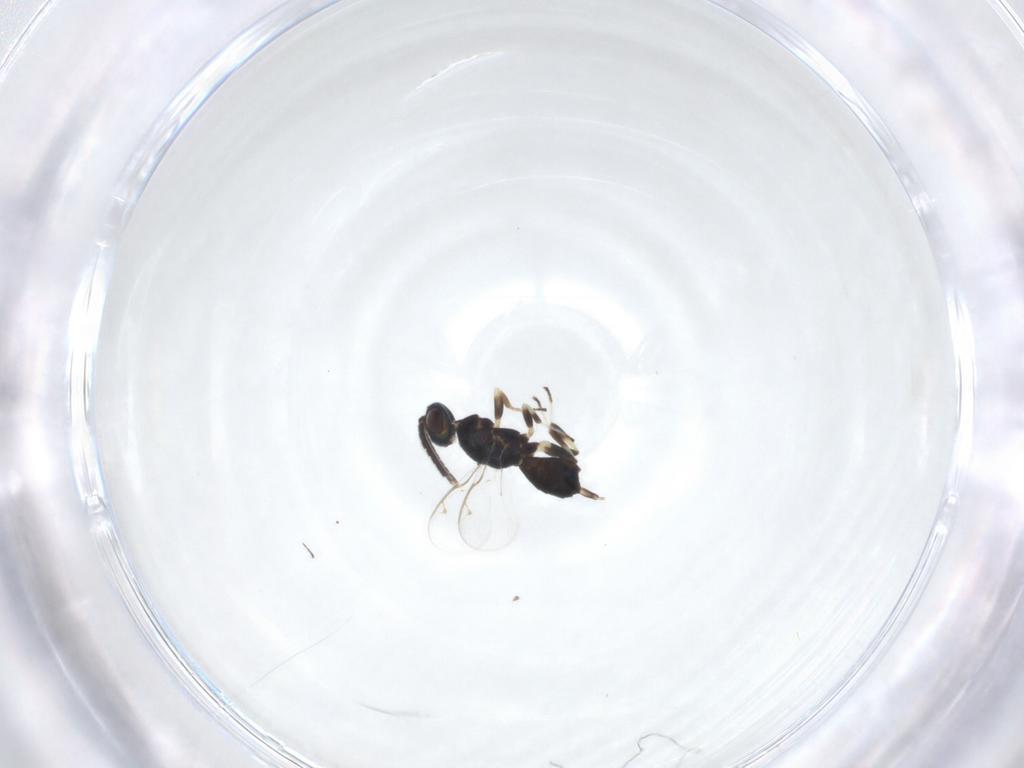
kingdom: Animalia
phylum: Arthropoda
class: Insecta
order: Hymenoptera
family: Eupelmidae
